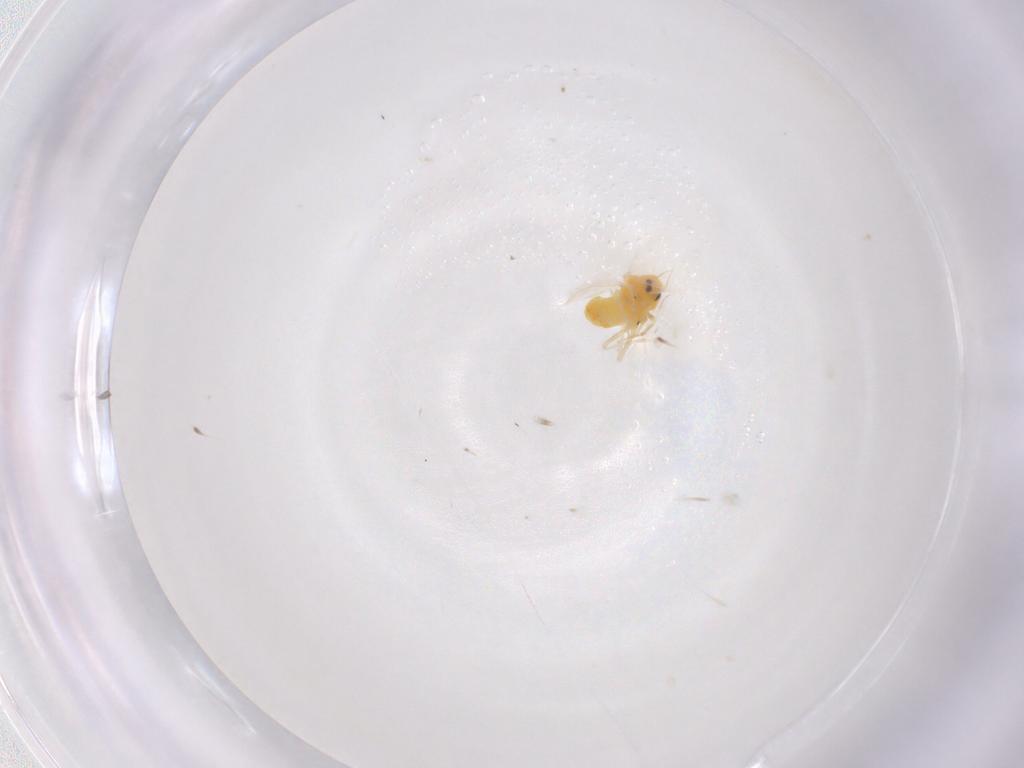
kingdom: Animalia
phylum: Arthropoda
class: Insecta
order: Hemiptera
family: Aleyrodidae
